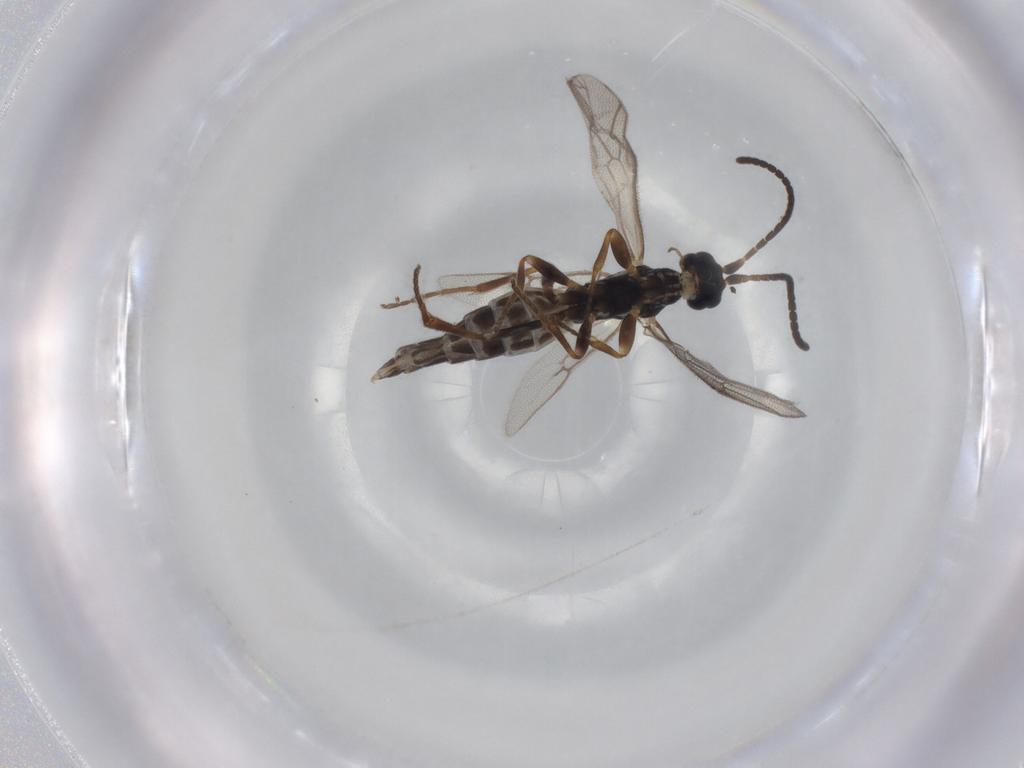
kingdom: Animalia
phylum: Arthropoda
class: Insecta
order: Hymenoptera
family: Ichneumonidae
